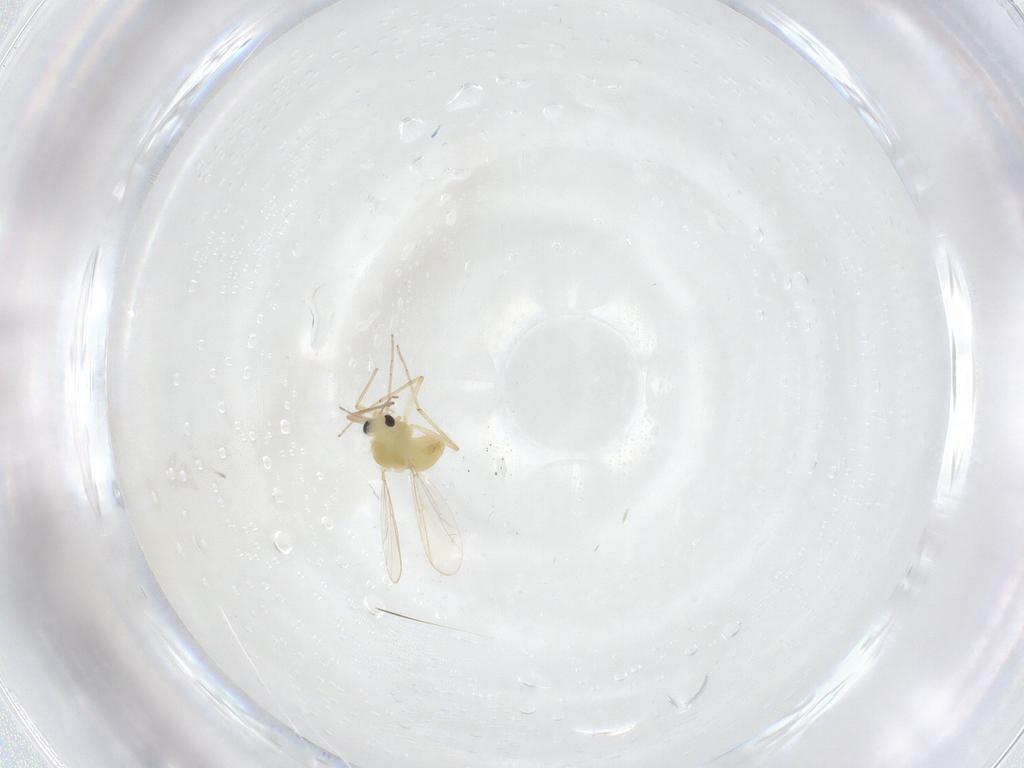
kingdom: Animalia
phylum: Arthropoda
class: Insecta
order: Diptera
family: Chironomidae
